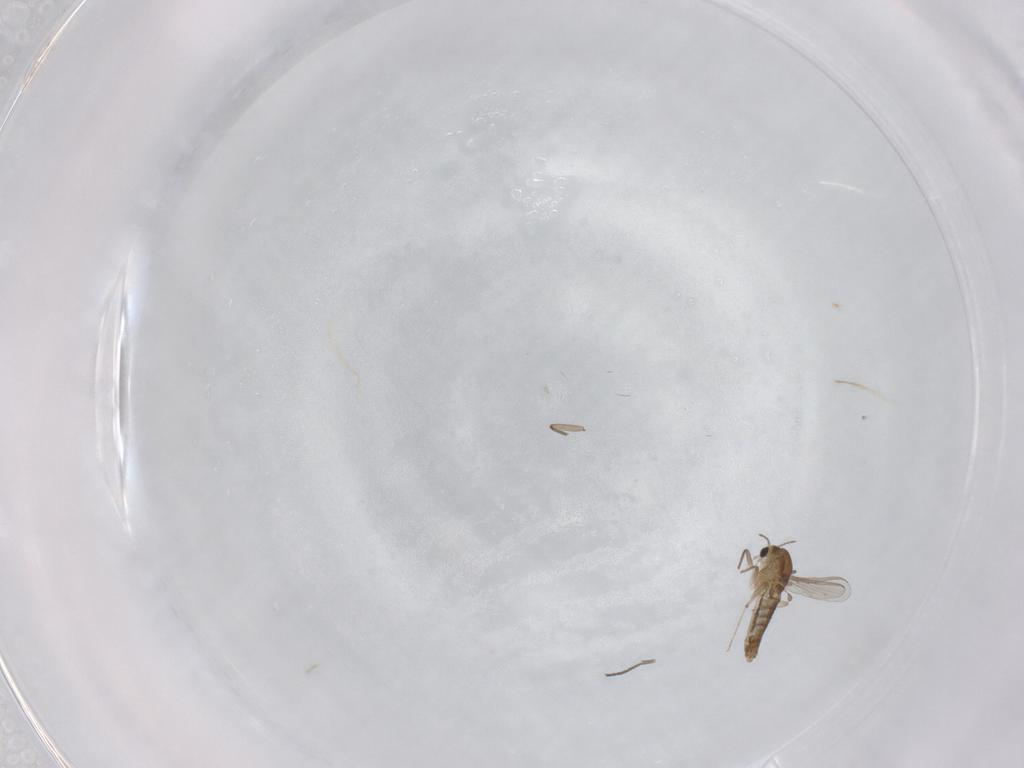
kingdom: Animalia
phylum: Arthropoda
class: Insecta
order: Diptera
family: Chironomidae
